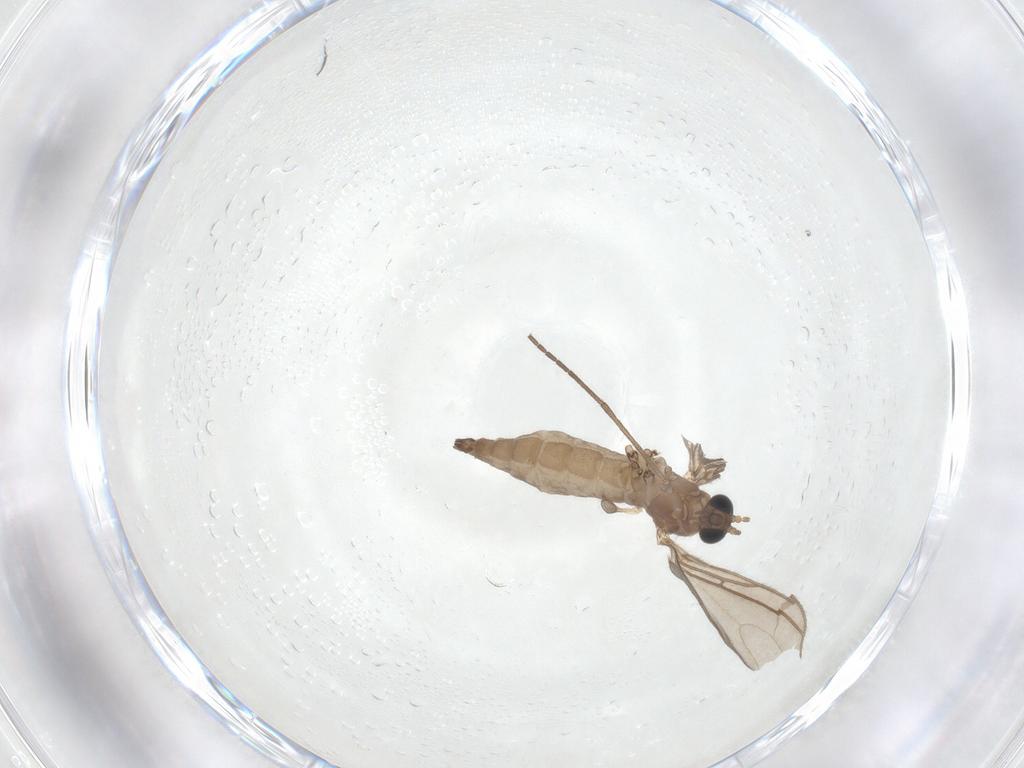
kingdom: Animalia
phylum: Arthropoda
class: Insecta
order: Diptera
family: Sciaridae
